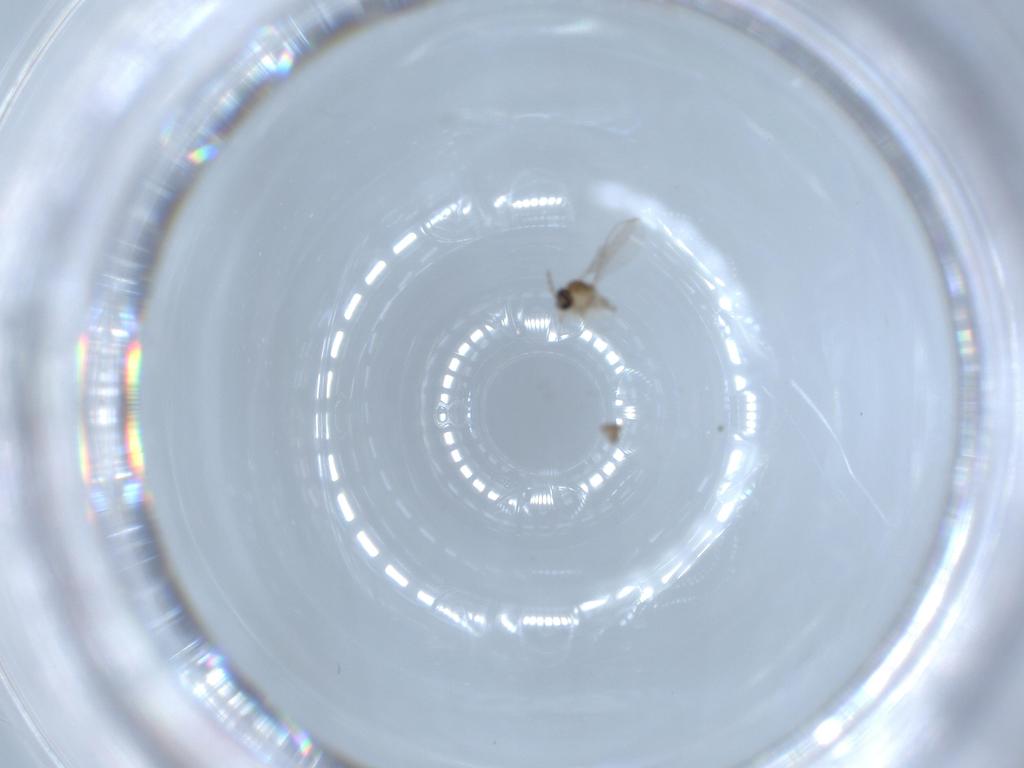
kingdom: Animalia
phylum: Arthropoda
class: Insecta
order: Diptera
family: Cecidomyiidae
